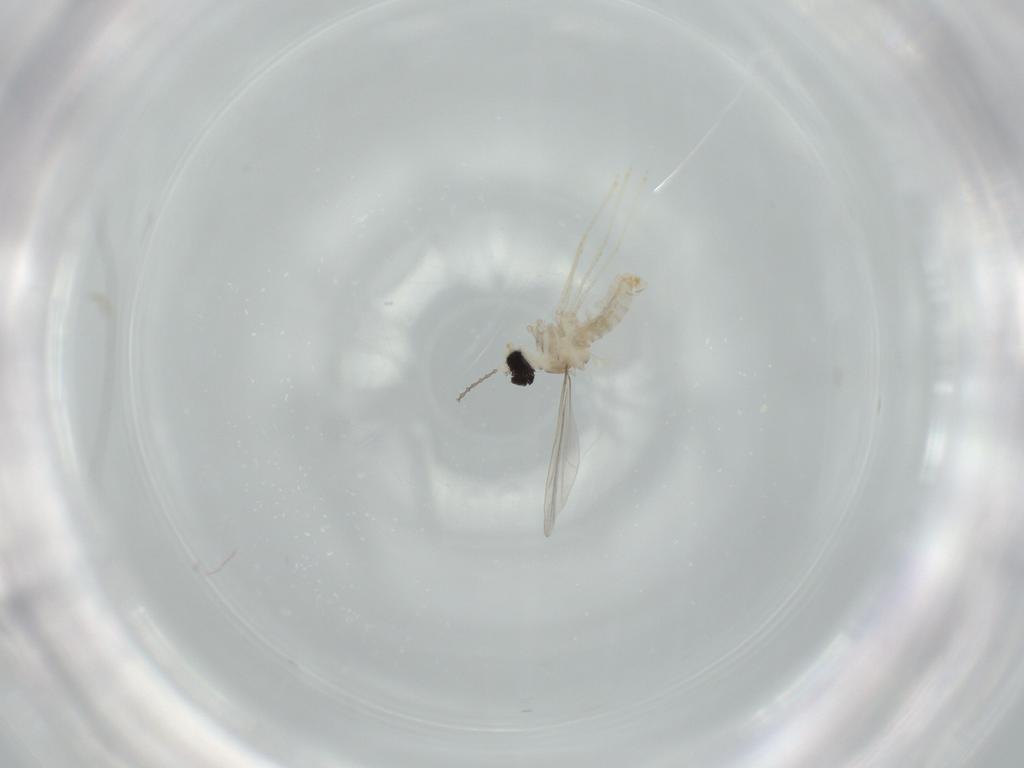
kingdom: Animalia
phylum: Arthropoda
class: Insecta
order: Diptera
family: Cecidomyiidae
